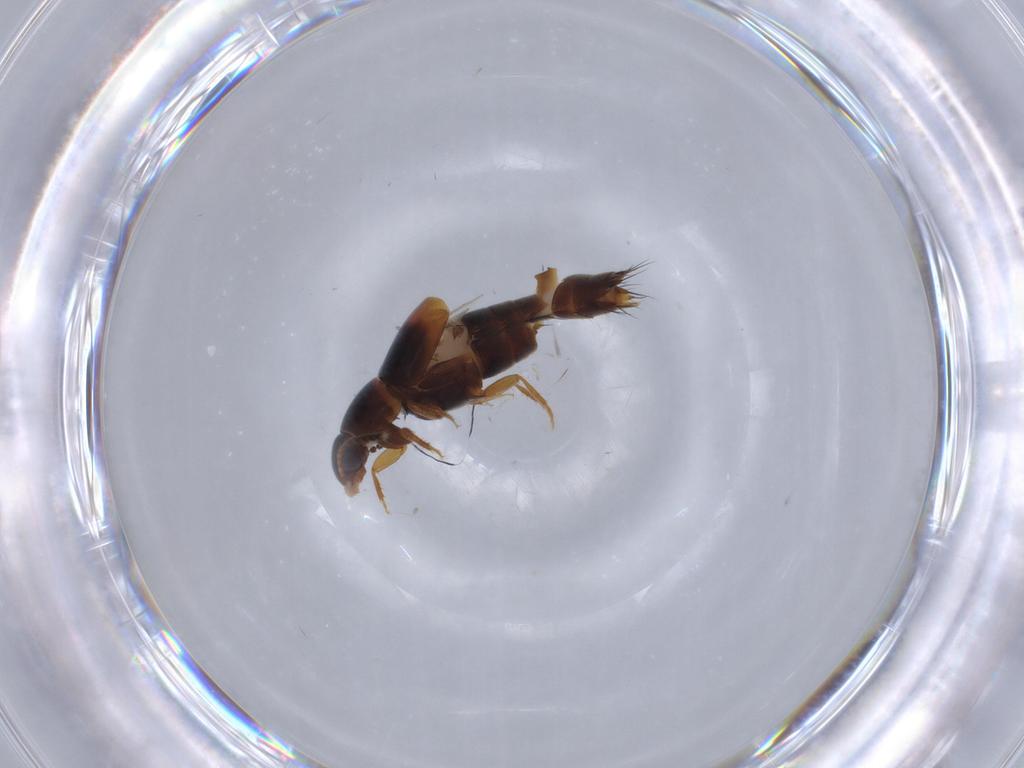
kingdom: Animalia
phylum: Arthropoda
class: Insecta
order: Coleoptera
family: Staphylinidae
